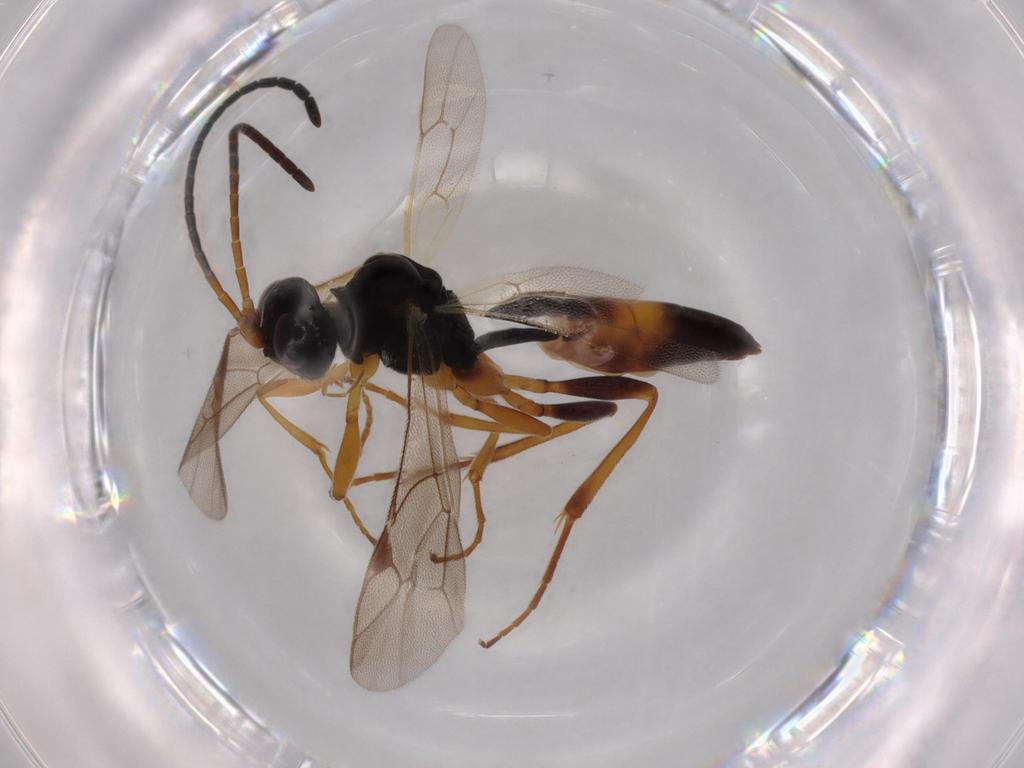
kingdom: Animalia
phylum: Arthropoda
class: Insecta
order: Hymenoptera
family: Ichneumonidae
